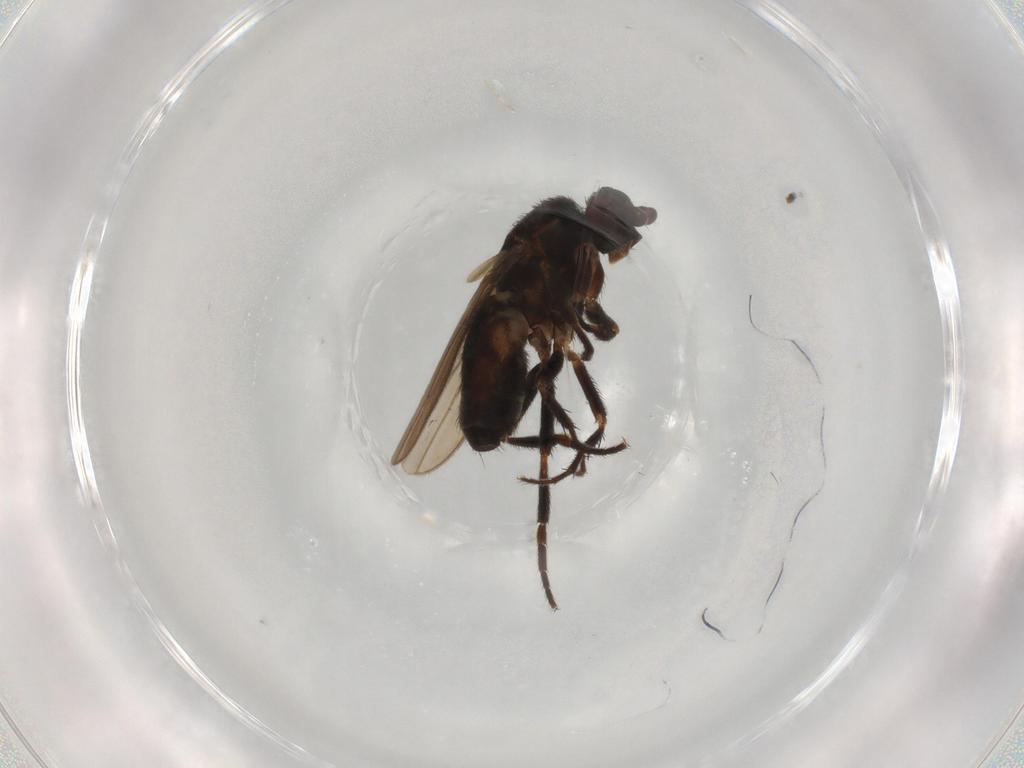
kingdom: Animalia
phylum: Arthropoda
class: Insecta
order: Diptera
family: Sphaeroceridae
